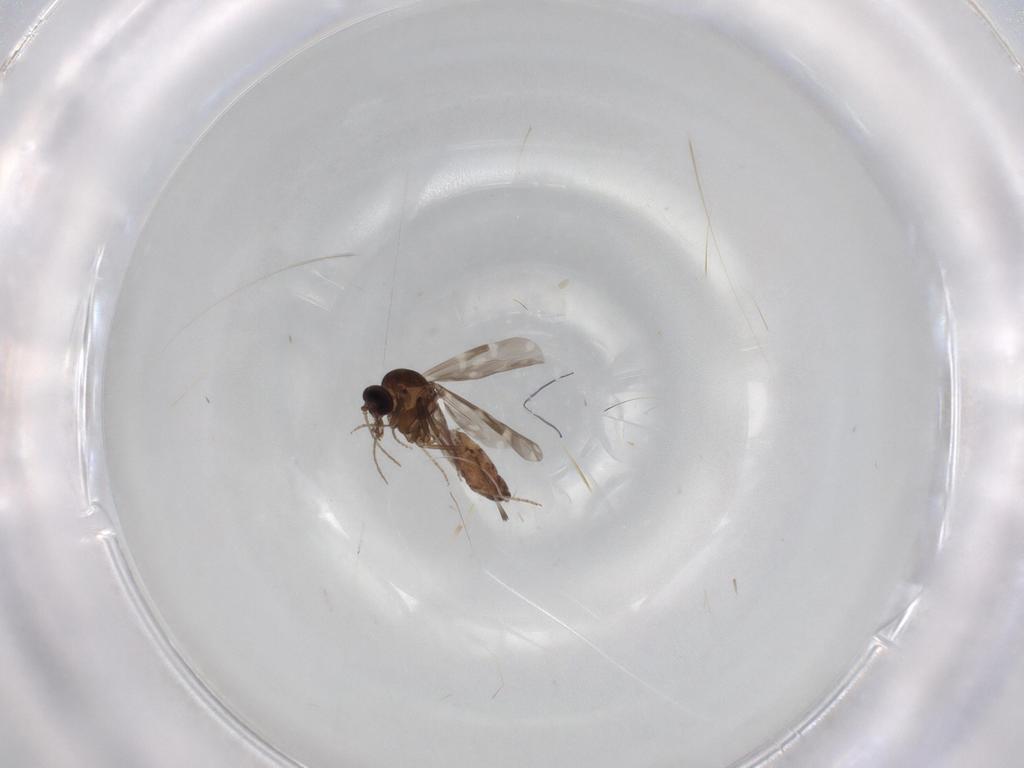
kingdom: Animalia
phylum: Arthropoda
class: Insecta
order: Diptera
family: Ceratopogonidae
